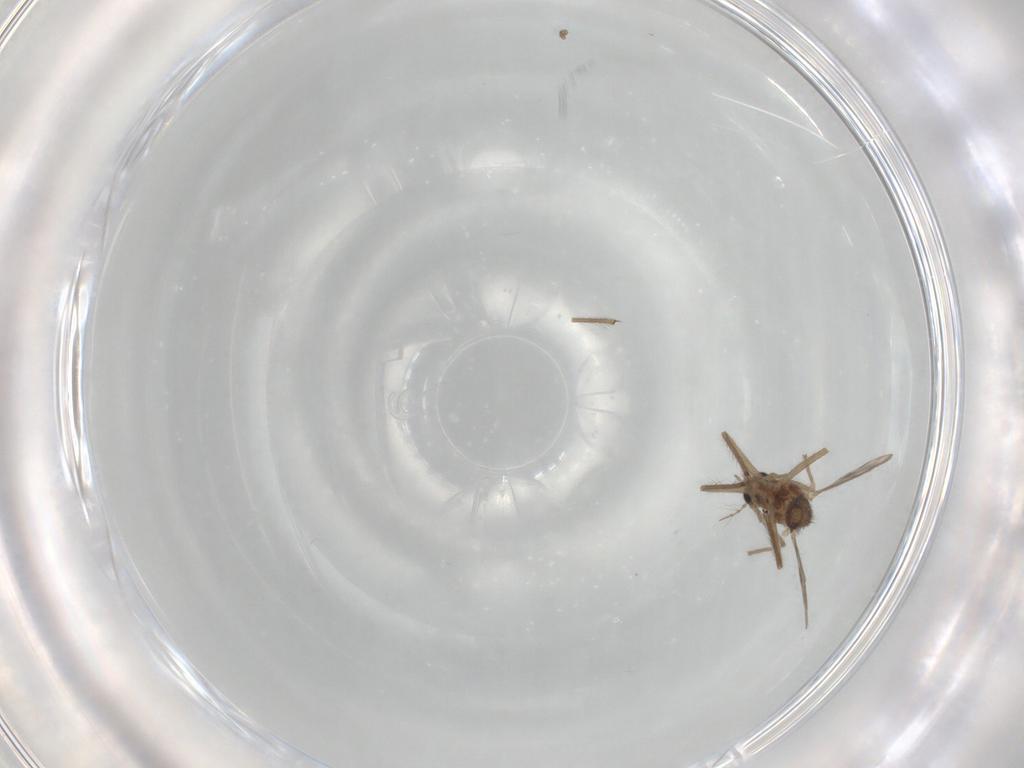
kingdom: Animalia
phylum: Arthropoda
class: Insecta
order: Diptera
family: Chironomidae
